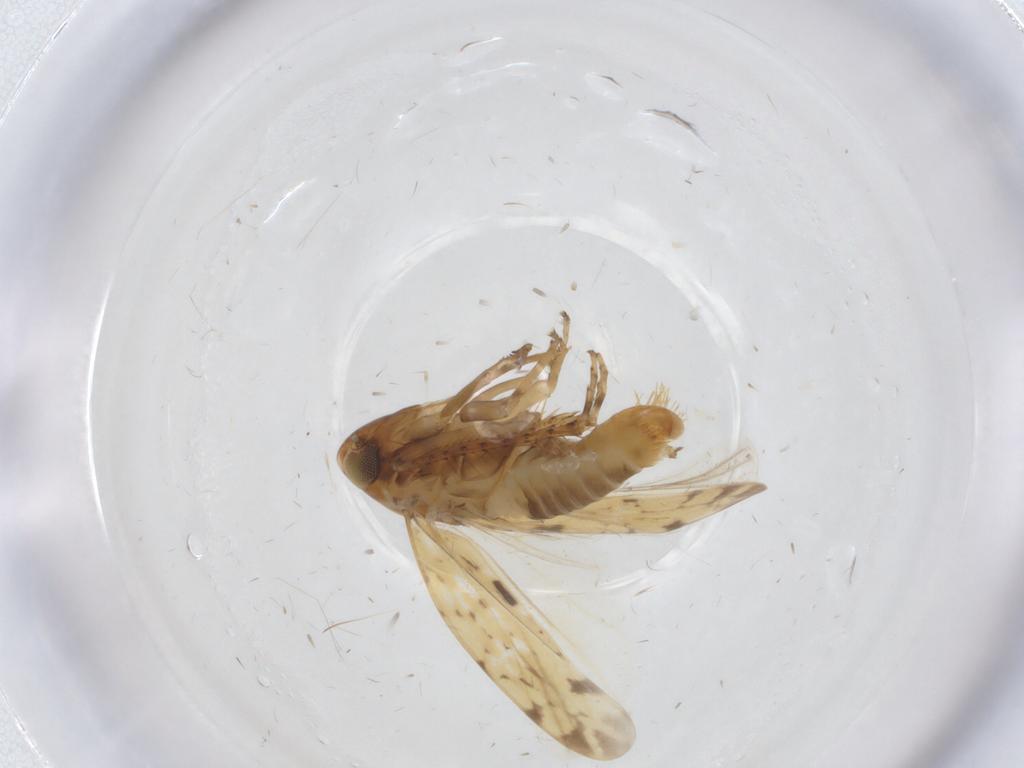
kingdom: Animalia
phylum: Arthropoda
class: Insecta
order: Hemiptera
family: Cicadellidae
